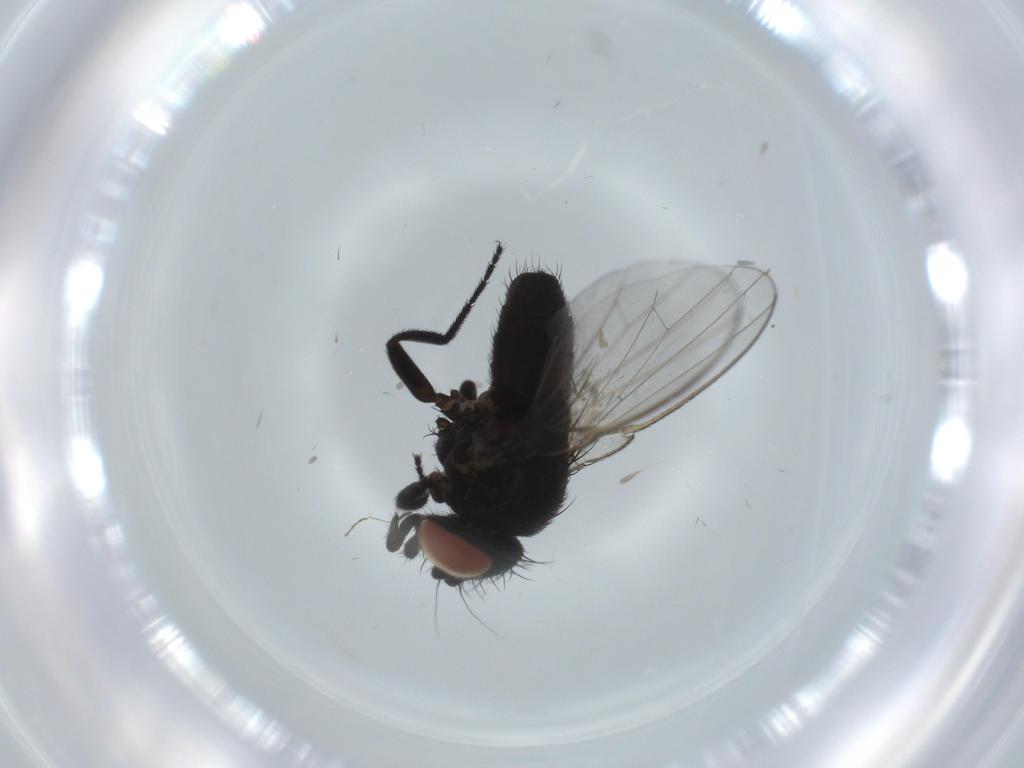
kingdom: Animalia
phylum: Arthropoda
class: Insecta
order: Diptera
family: Milichiidae
